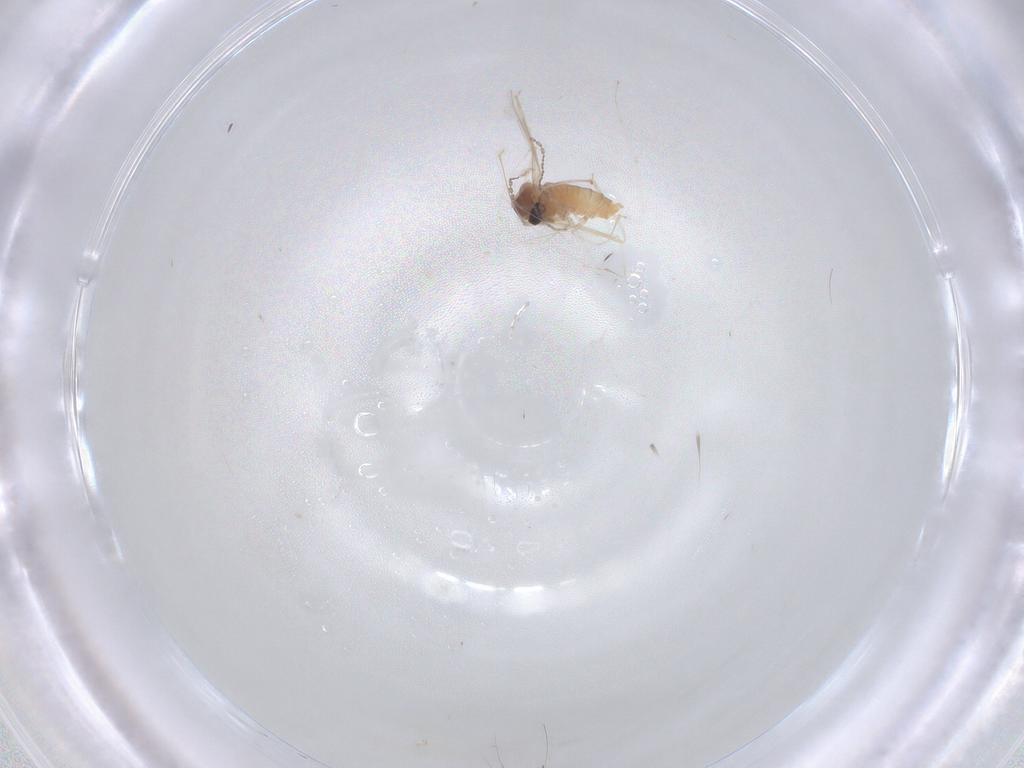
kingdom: Animalia
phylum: Arthropoda
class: Insecta
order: Diptera
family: Cecidomyiidae
